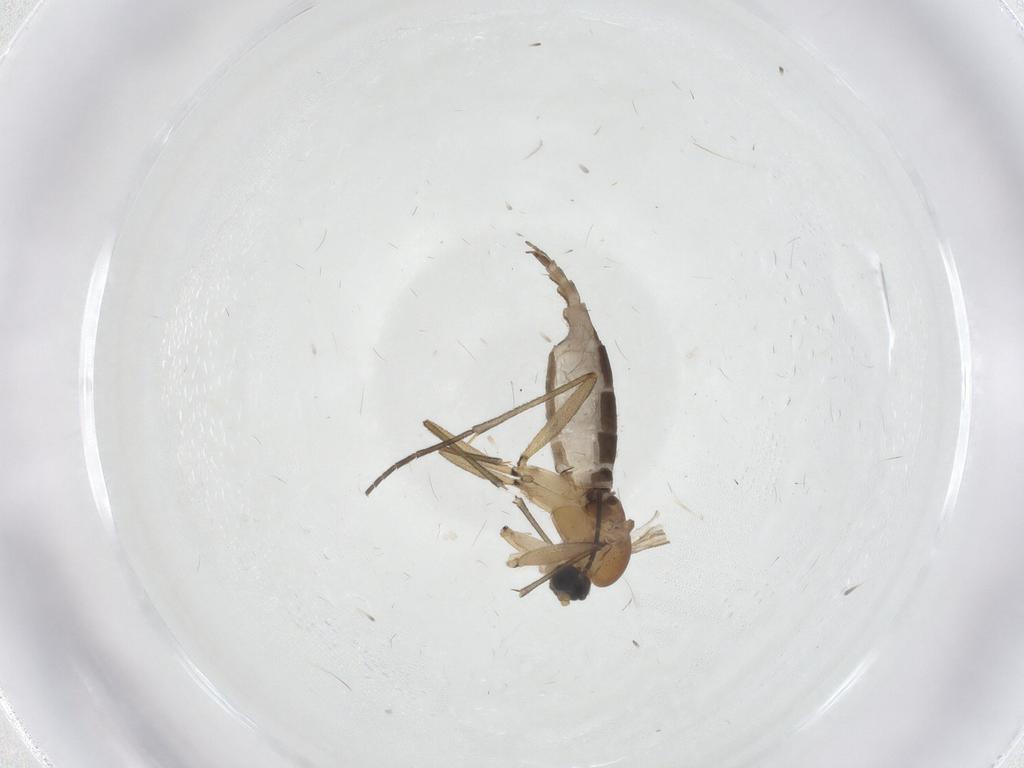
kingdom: Animalia
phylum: Arthropoda
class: Insecta
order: Diptera
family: Sciaridae
